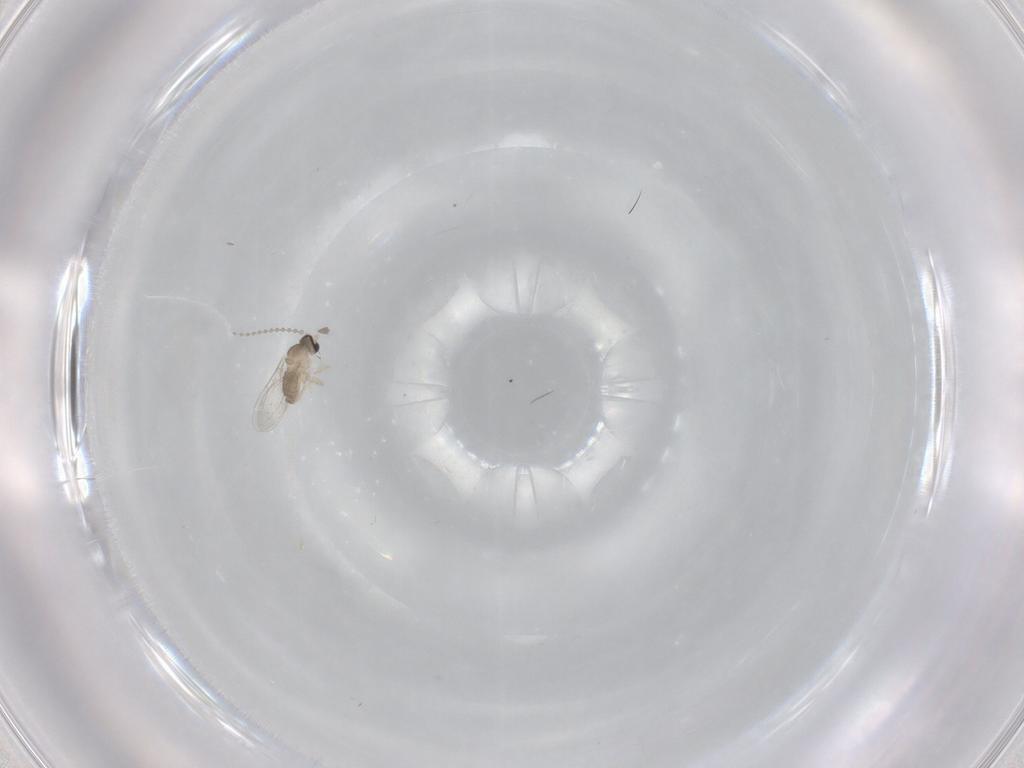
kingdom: Animalia
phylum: Arthropoda
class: Insecta
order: Diptera
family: Cecidomyiidae
